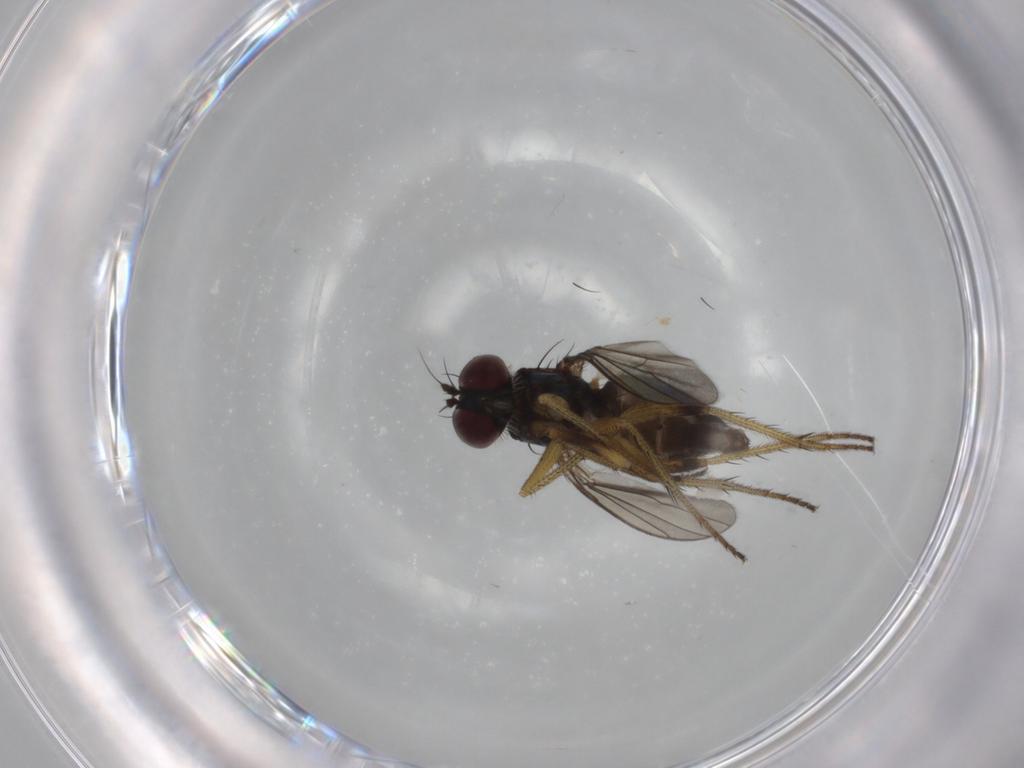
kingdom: Animalia
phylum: Arthropoda
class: Insecta
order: Diptera
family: Dolichopodidae
